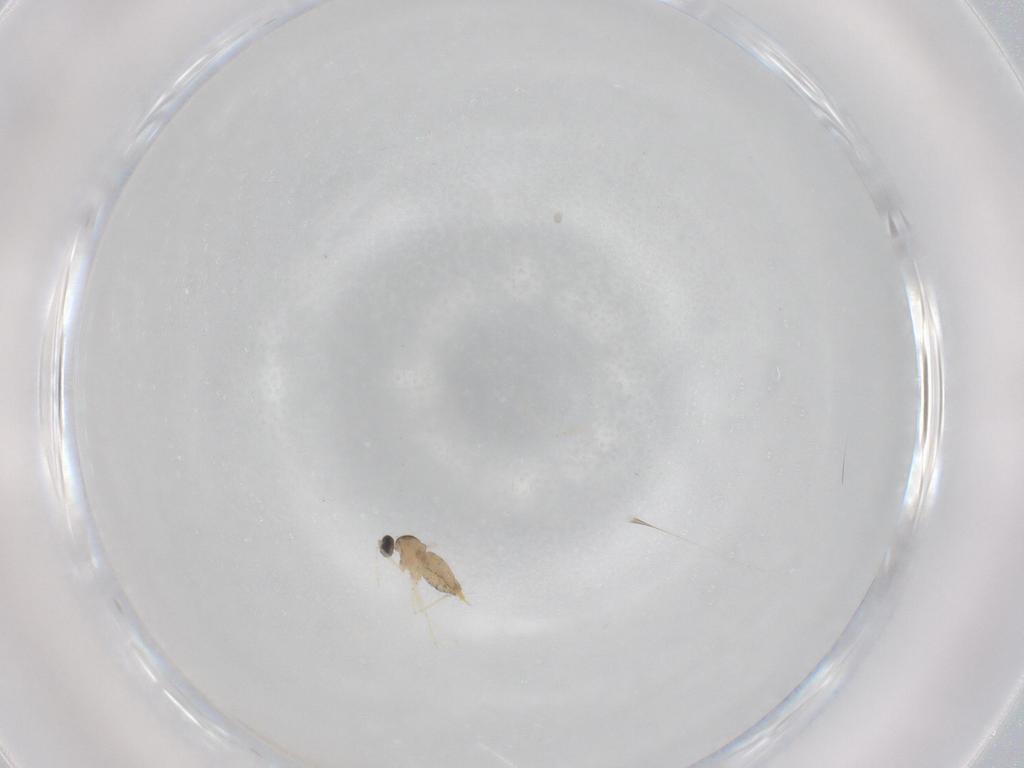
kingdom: Animalia
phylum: Arthropoda
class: Insecta
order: Diptera
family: Cecidomyiidae
